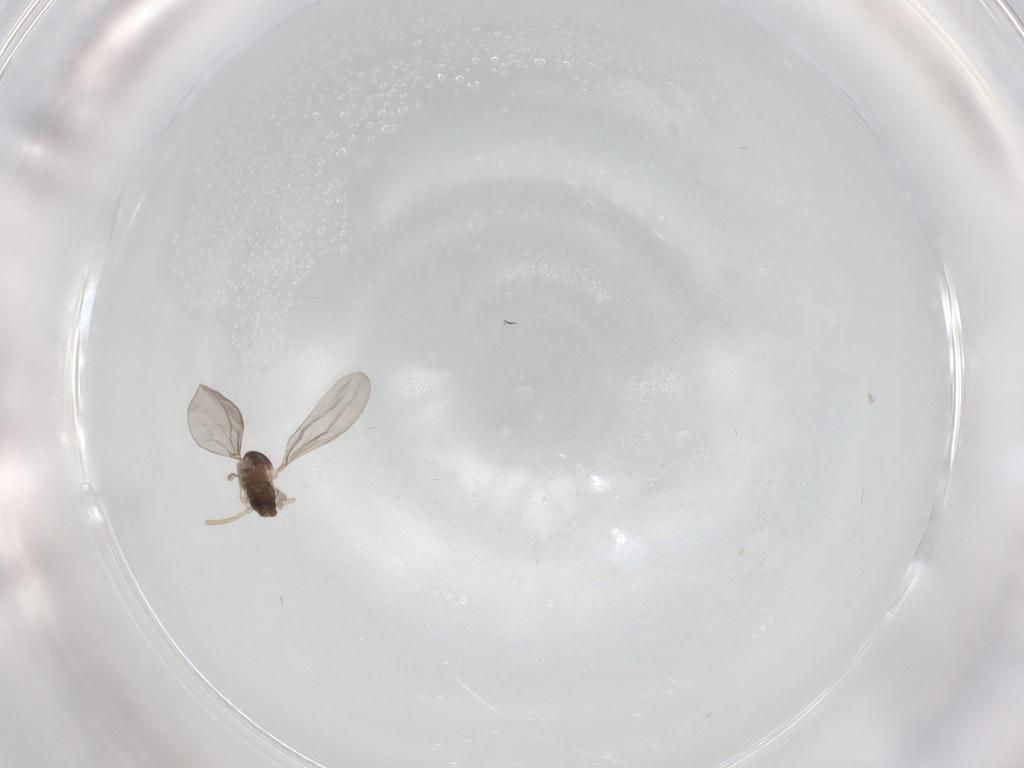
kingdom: Animalia
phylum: Arthropoda
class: Insecta
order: Diptera
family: Cecidomyiidae
